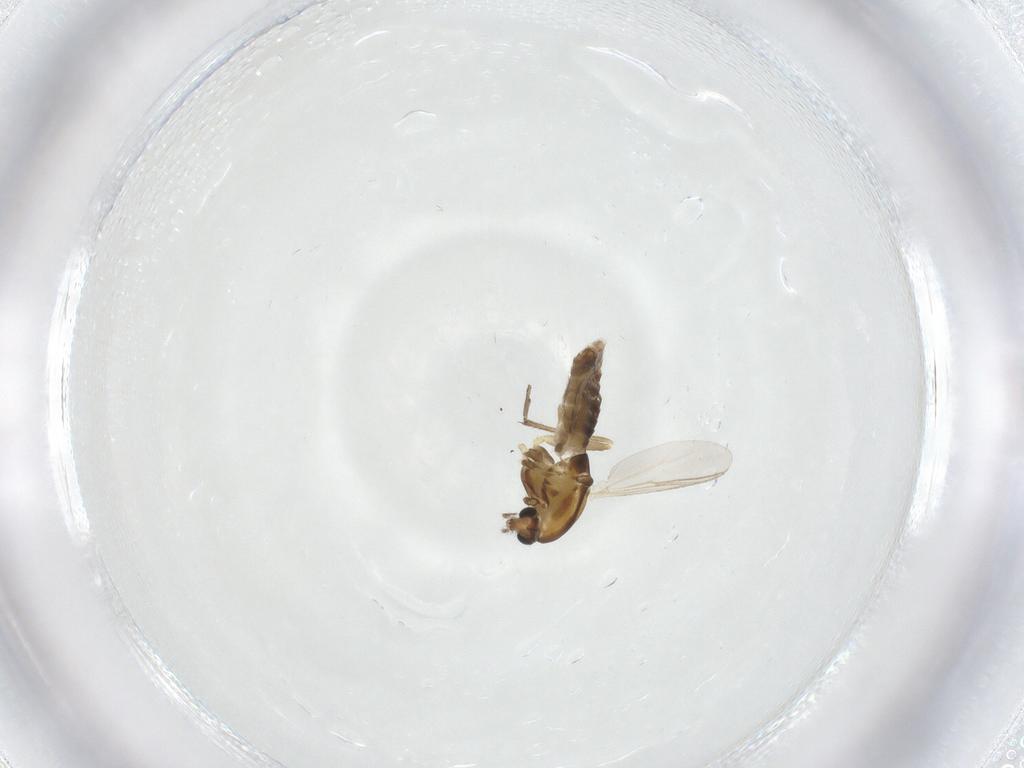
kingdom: Animalia
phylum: Arthropoda
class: Insecta
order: Diptera
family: Chironomidae
